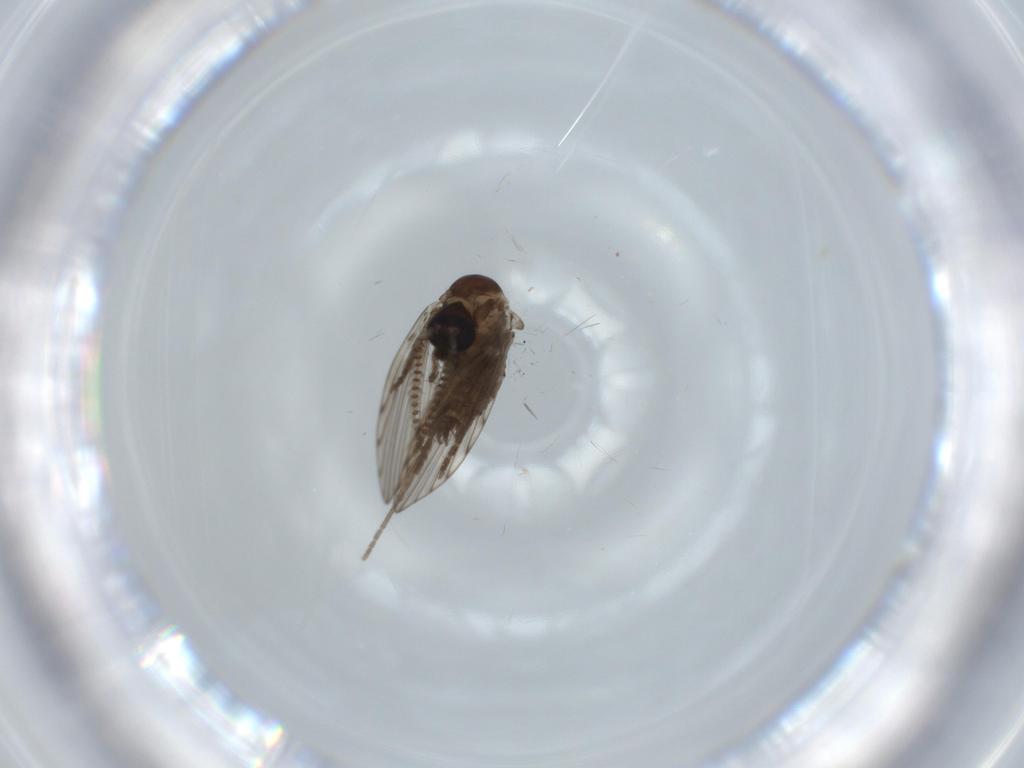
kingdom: Animalia
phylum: Arthropoda
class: Insecta
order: Diptera
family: Psychodidae
